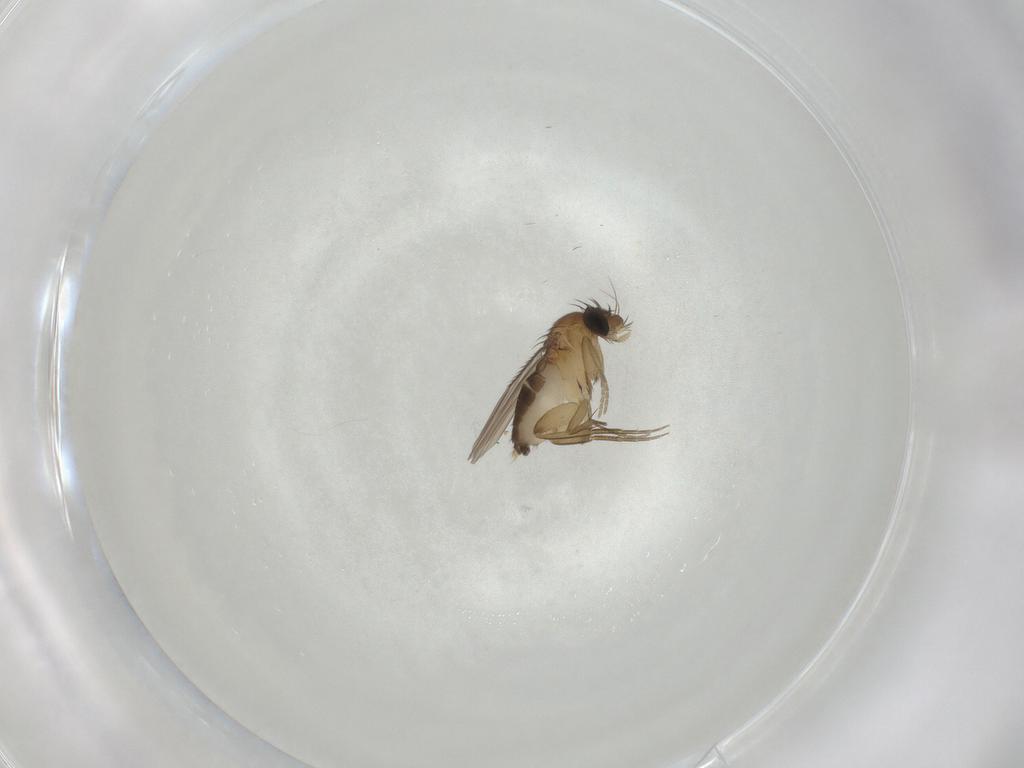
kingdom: Animalia
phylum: Arthropoda
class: Insecta
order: Diptera
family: Phoridae
